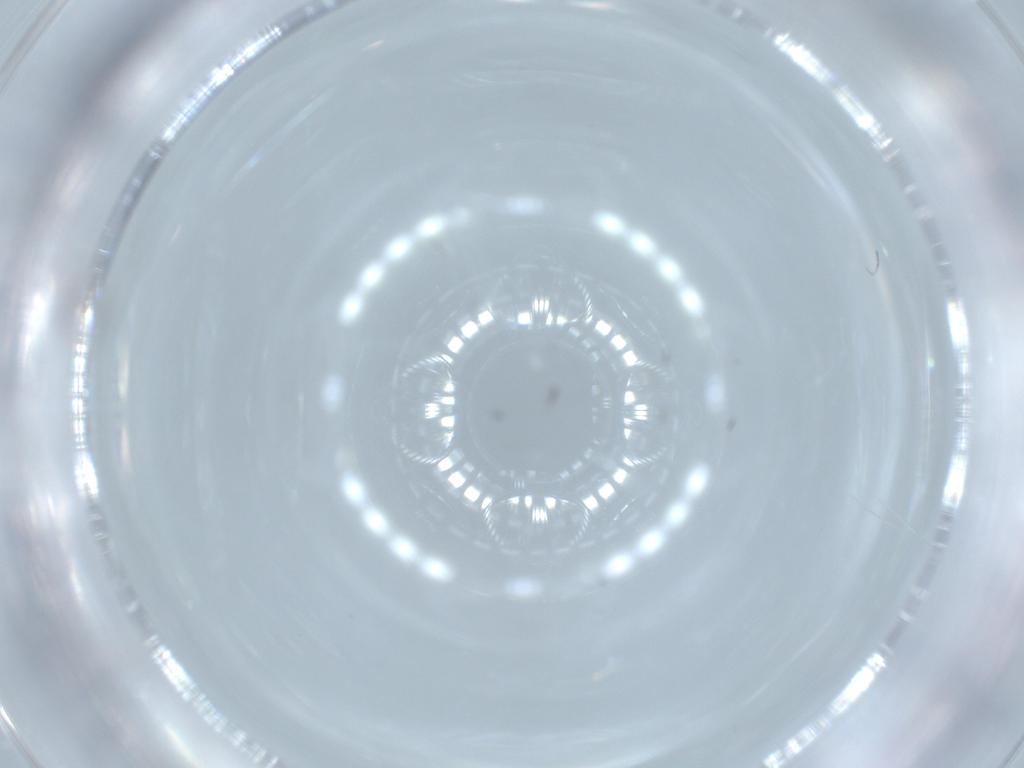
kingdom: Animalia
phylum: Arthropoda
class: Insecta
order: Diptera
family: Cecidomyiidae
